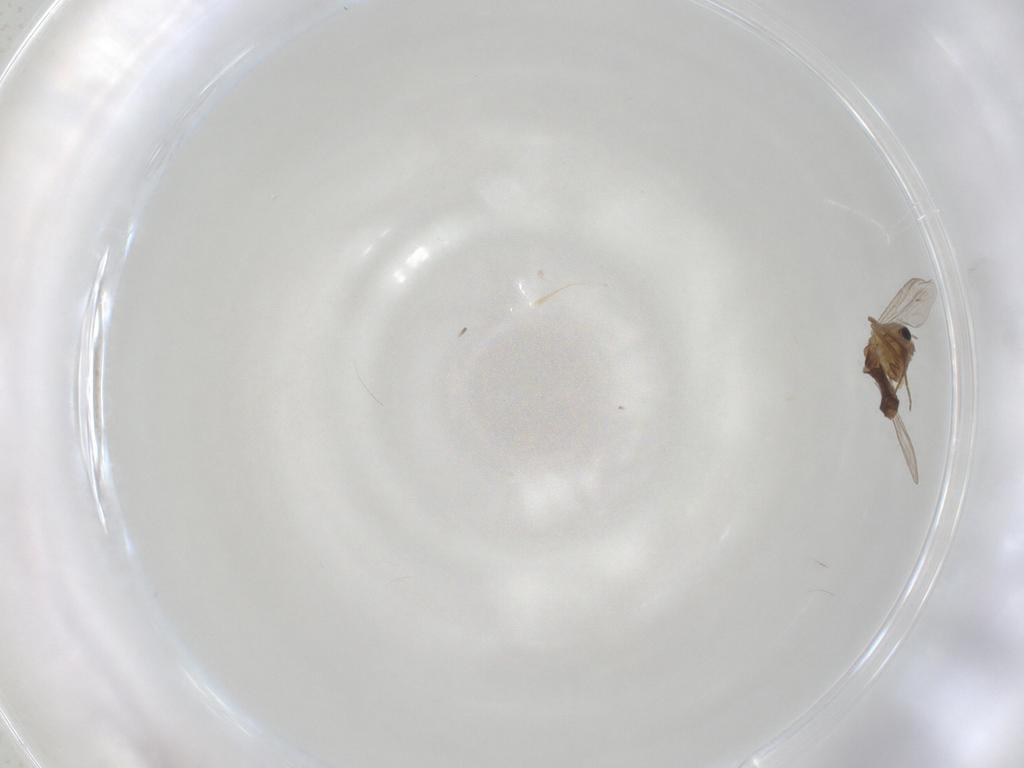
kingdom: Animalia
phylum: Arthropoda
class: Insecta
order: Diptera
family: Chironomidae
